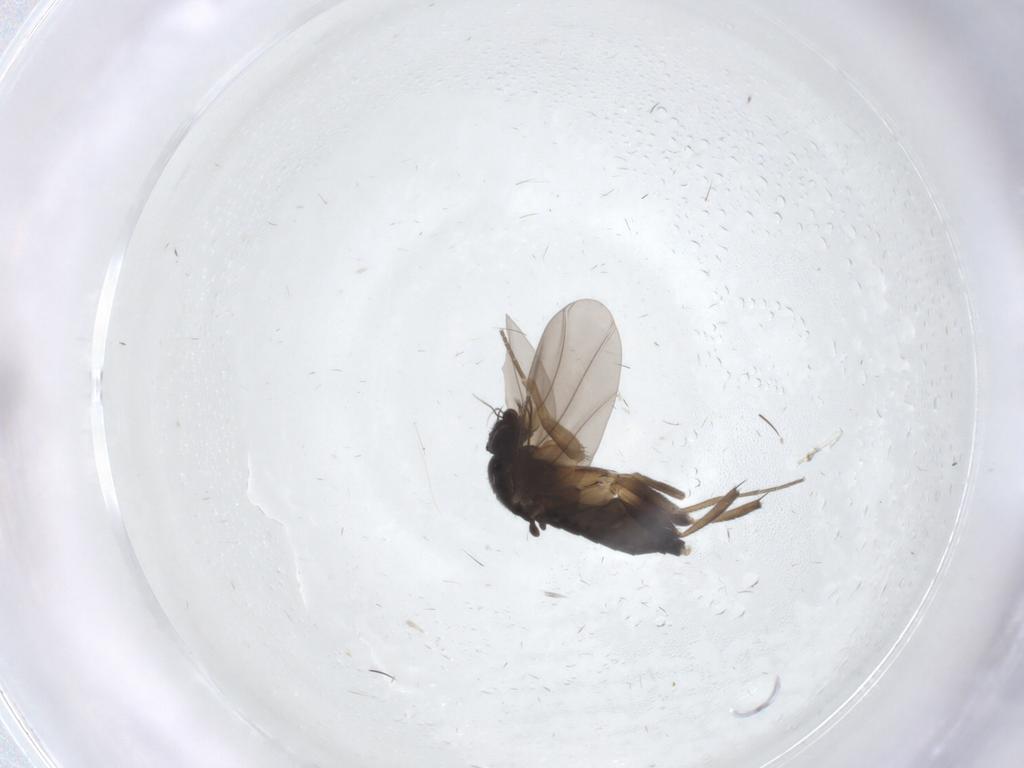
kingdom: Animalia
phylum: Arthropoda
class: Insecta
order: Diptera
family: Phoridae
